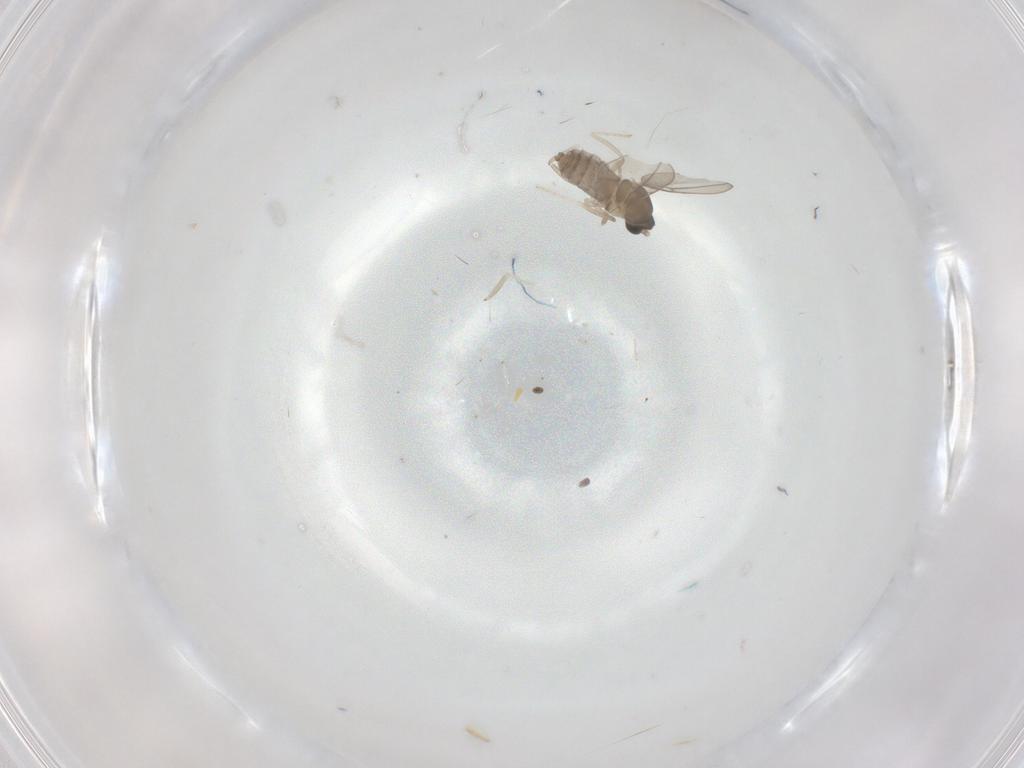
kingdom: Animalia
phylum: Arthropoda
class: Insecta
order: Diptera
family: Cecidomyiidae
